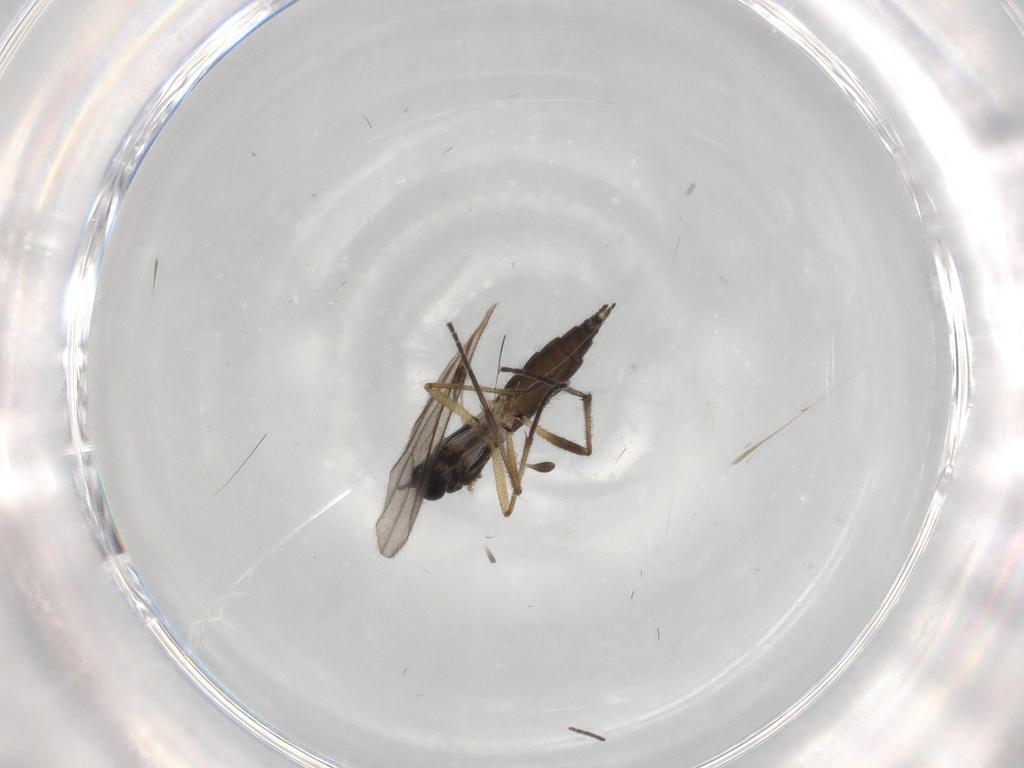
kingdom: Animalia
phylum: Arthropoda
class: Insecta
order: Diptera
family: Sciaridae
